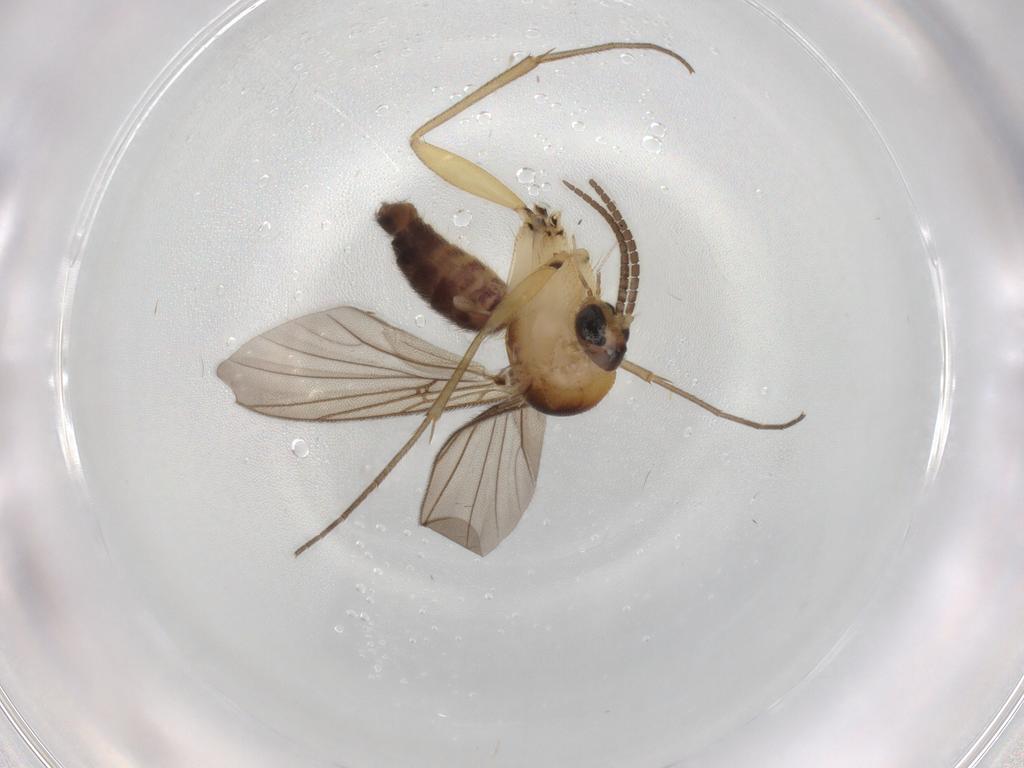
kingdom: Animalia
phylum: Arthropoda
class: Insecta
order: Diptera
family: Mycetophilidae
